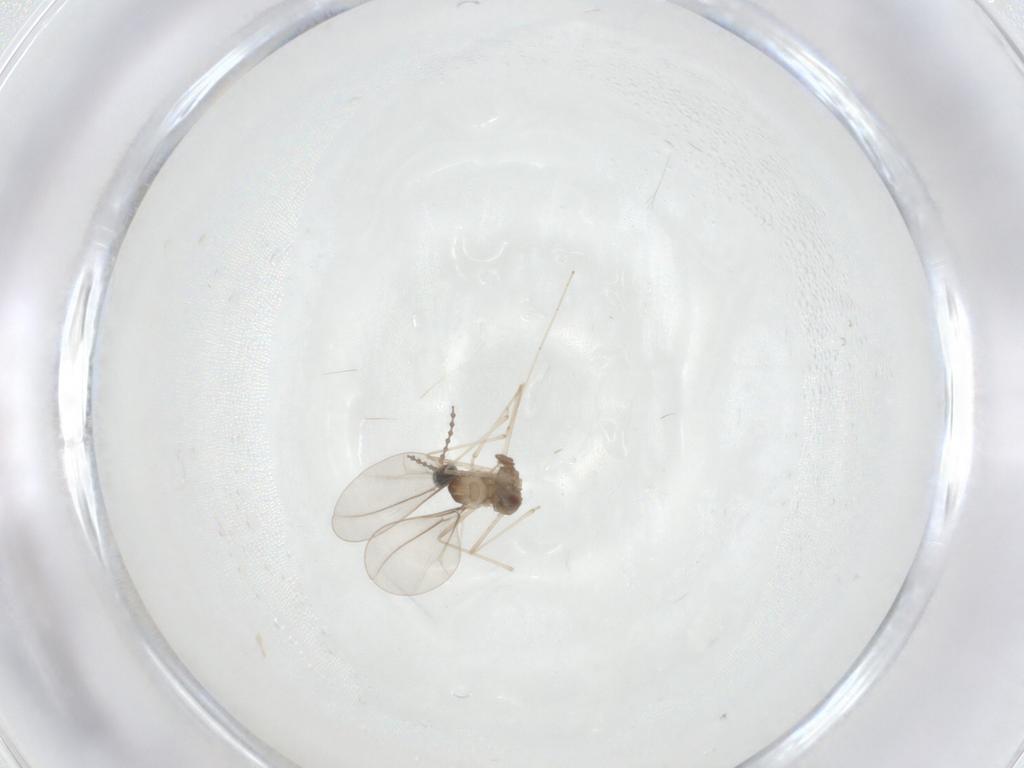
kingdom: Animalia
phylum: Arthropoda
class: Insecta
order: Diptera
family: Cecidomyiidae
